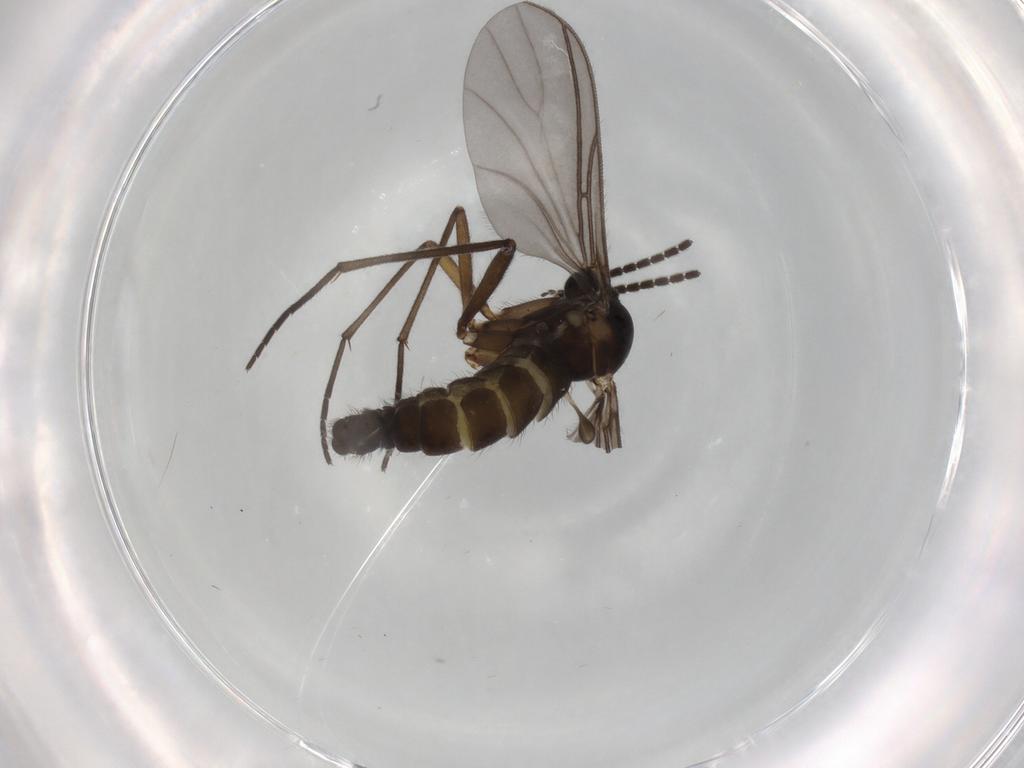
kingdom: Animalia
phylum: Arthropoda
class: Insecta
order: Diptera
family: Sciaridae
